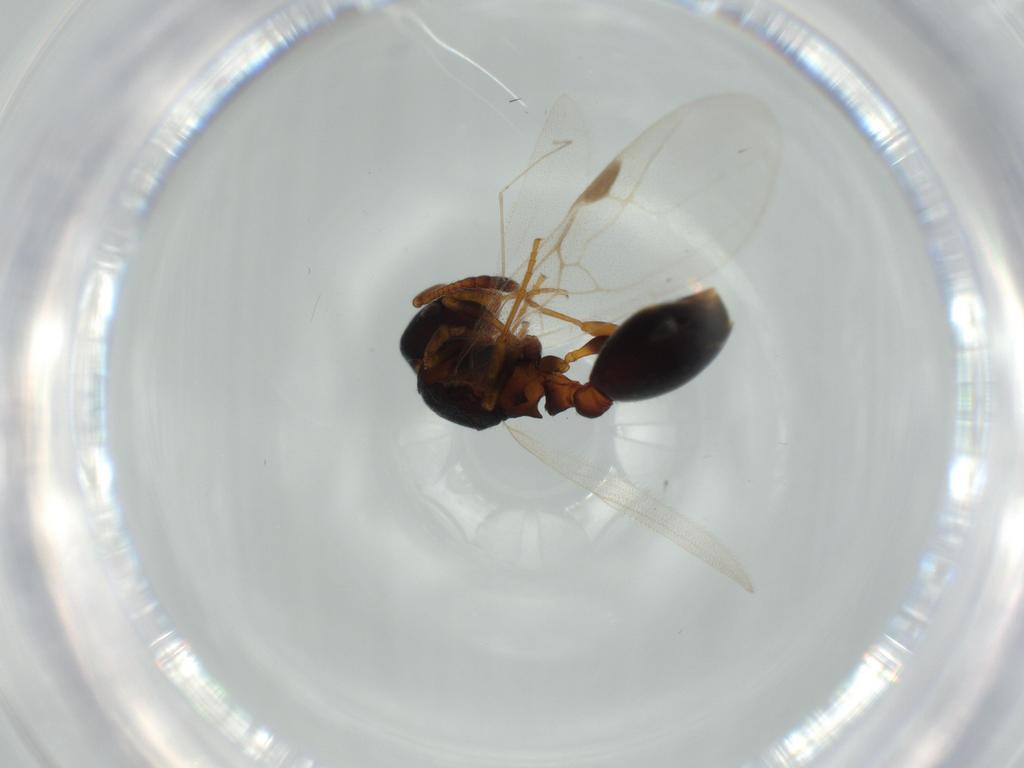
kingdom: Animalia
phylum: Arthropoda
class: Insecta
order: Hymenoptera
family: Formicidae
